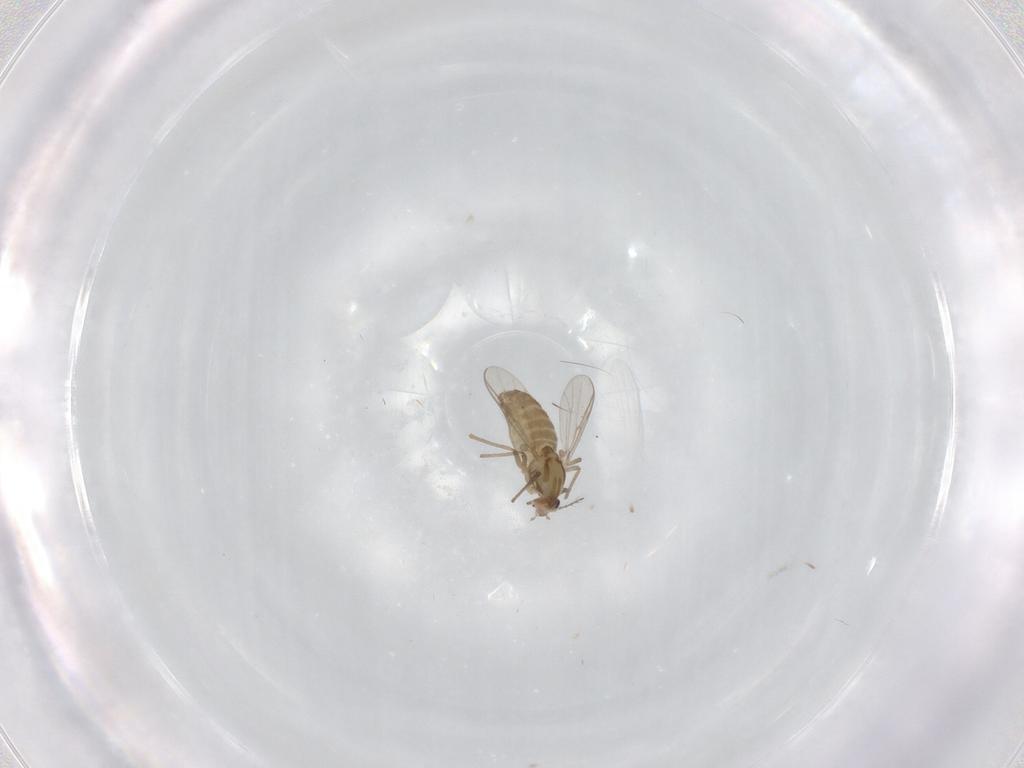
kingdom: Animalia
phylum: Arthropoda
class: Insecta
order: Diptera
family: Chironomidae
